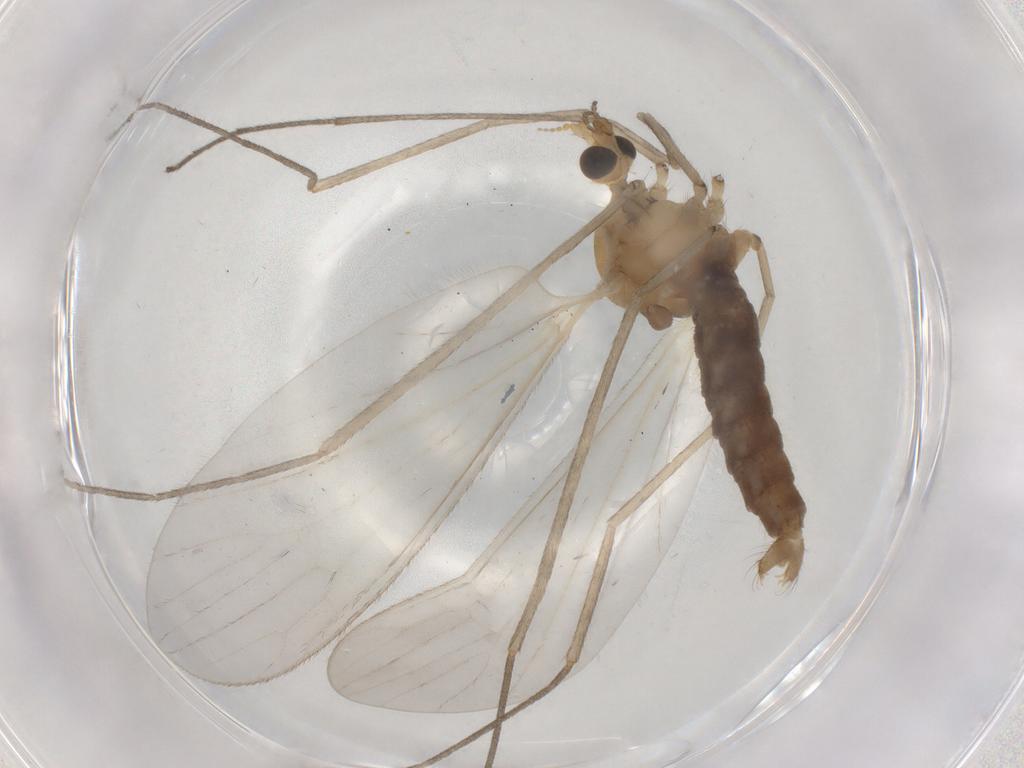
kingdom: Animalia
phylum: Arthropoda
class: Insecta
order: Diptera
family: Limoniidae
